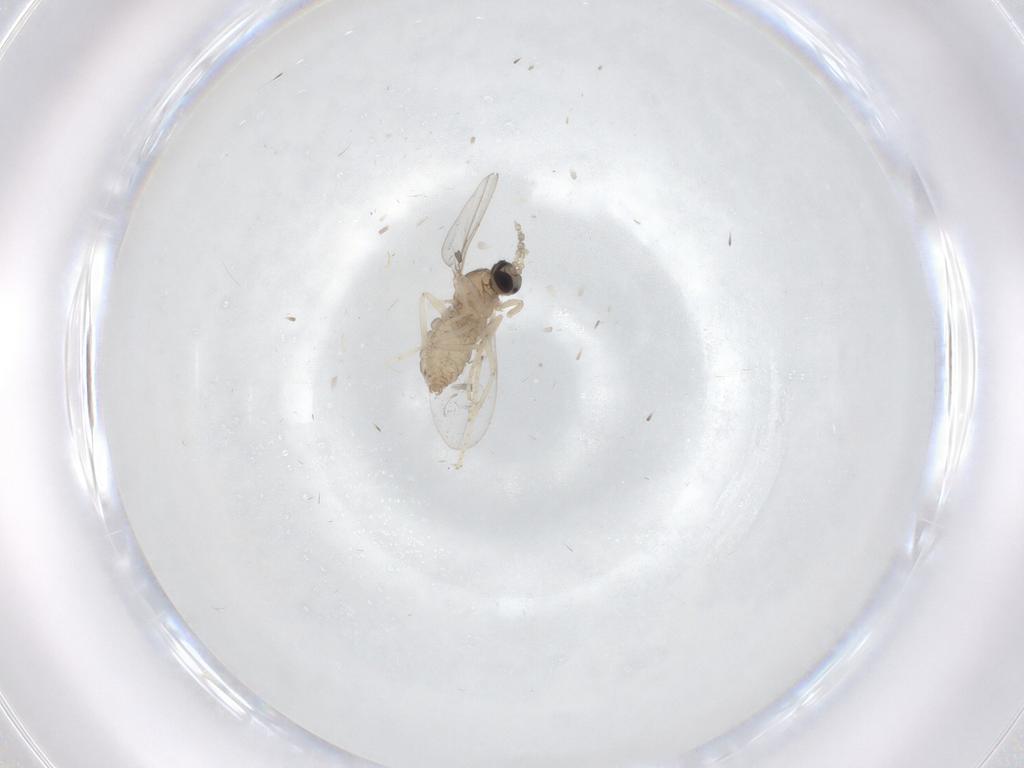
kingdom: Animalia
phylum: Arthropoda
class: Insecta
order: Diptera
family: Cecidomyiidae
